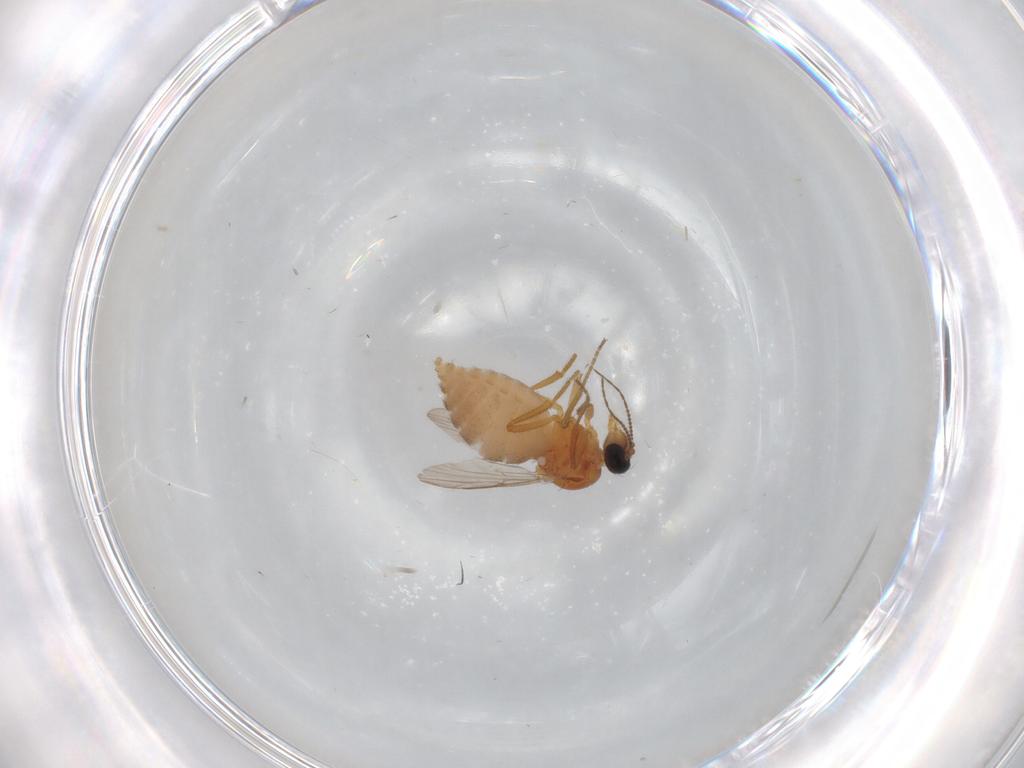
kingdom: Animalia
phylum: Arthropoda
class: Insecta
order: Diptera
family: Ceratopogonidae
